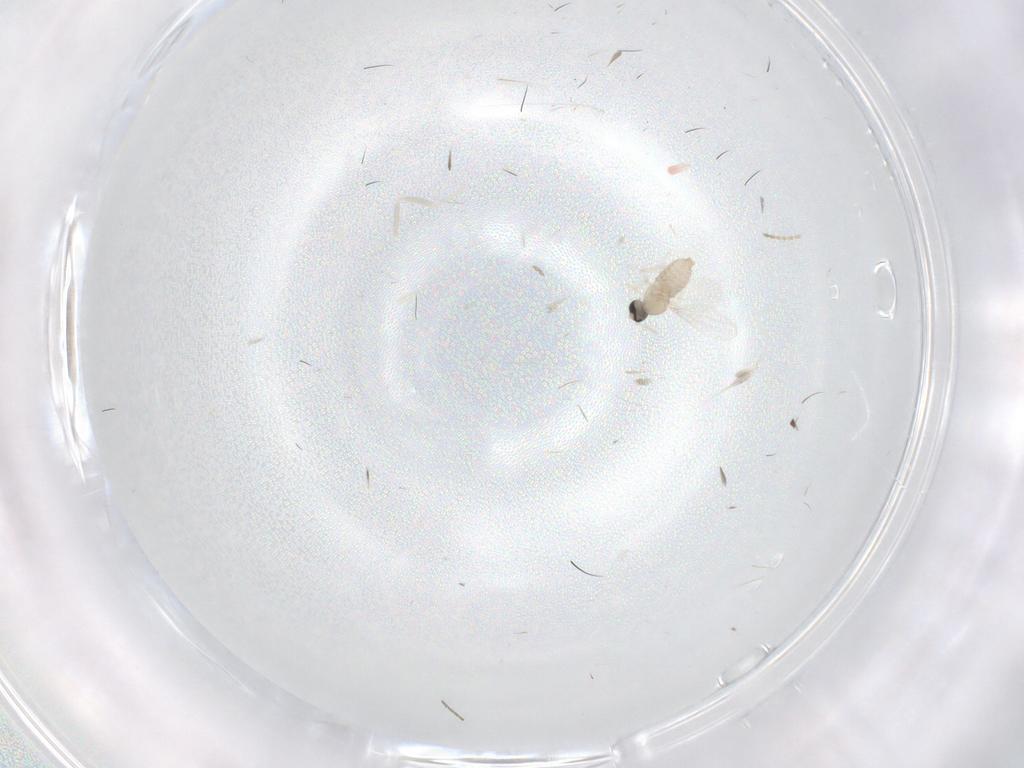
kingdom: Animalia
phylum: Arthropoda
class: Insecta
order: Diptera
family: Cecidomyiidae
